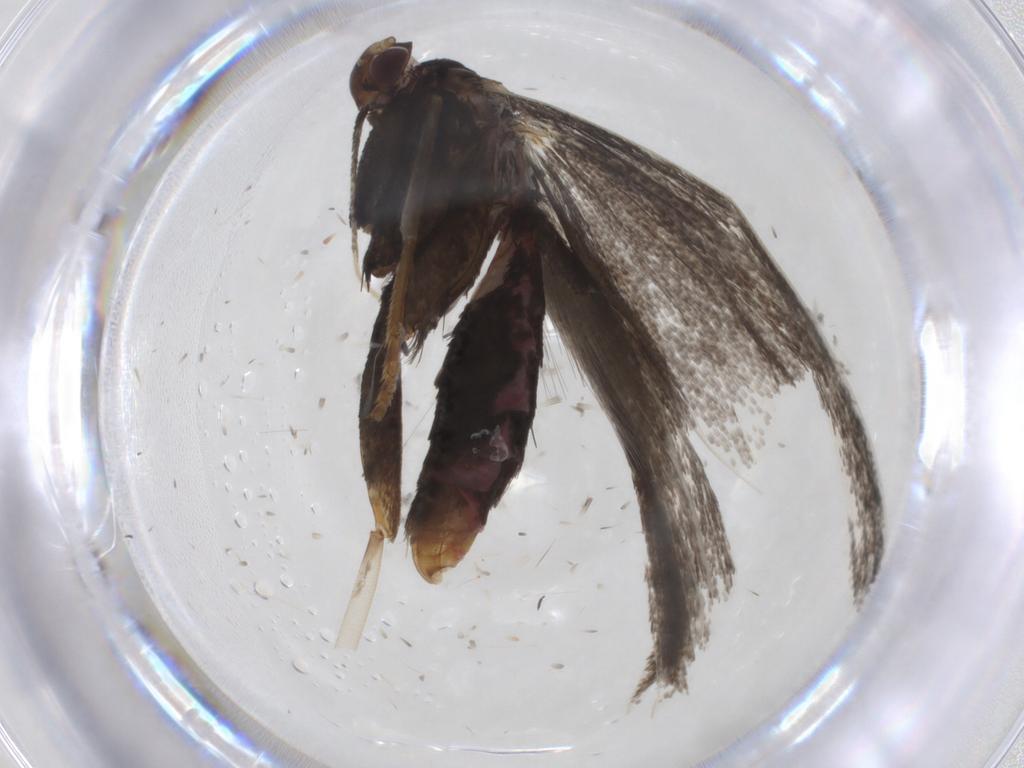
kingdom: Animalia
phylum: Arthropoda
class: Insecta
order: Lepidoptera
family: Lecithoceridae
